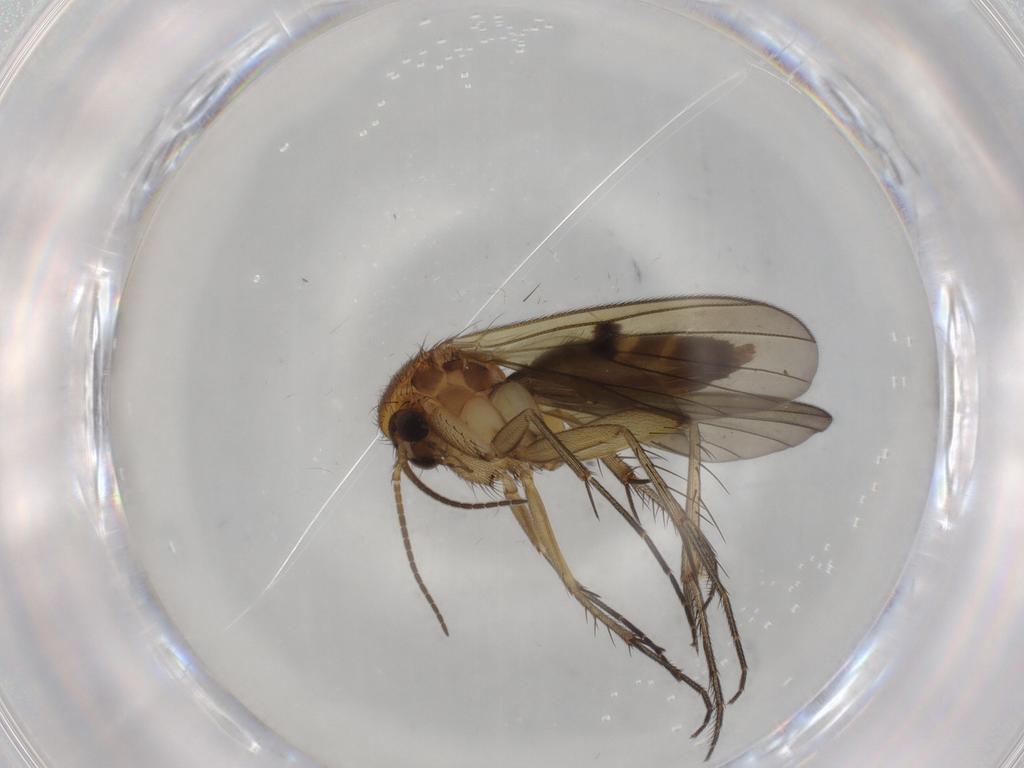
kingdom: Animalia
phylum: Arthropoda
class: Insecta
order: Diptera
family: Mycetophilidae
